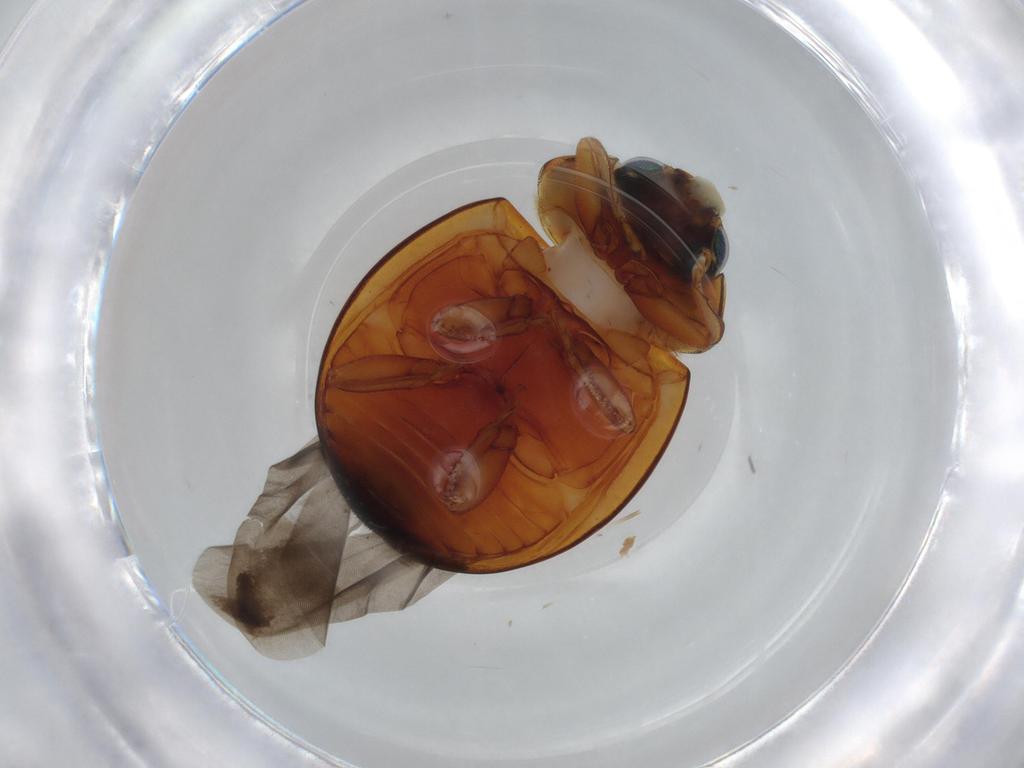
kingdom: Animalia
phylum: Arthropoda
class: Insecta
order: Coleoptera
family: Coccinellidae
